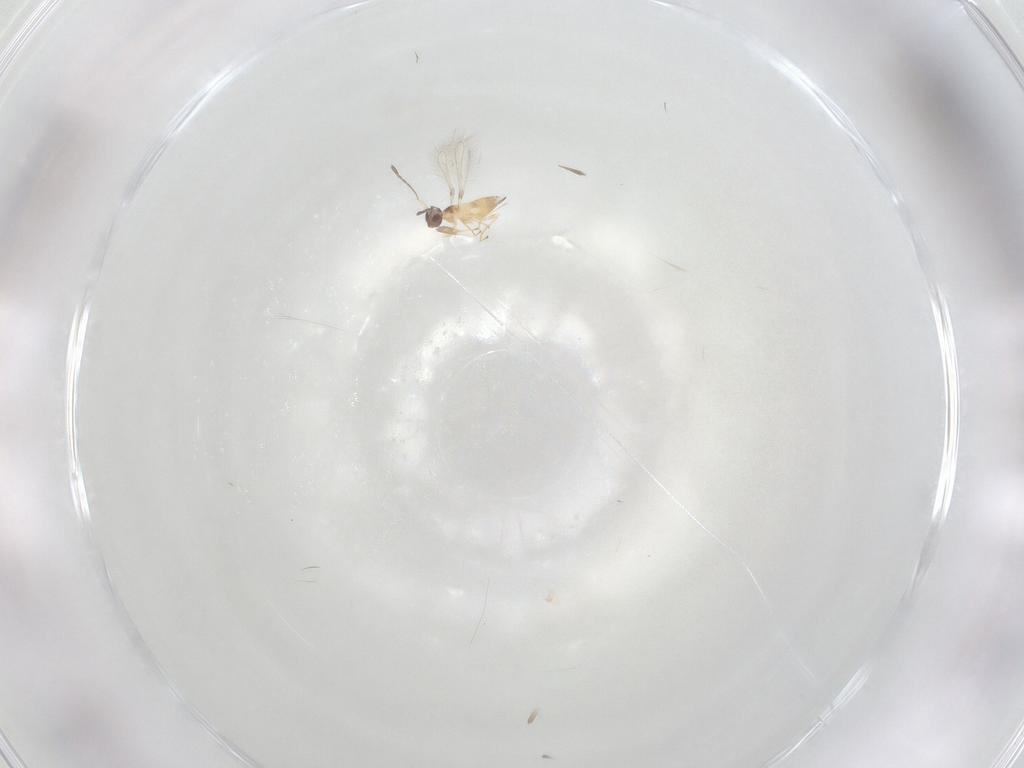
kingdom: Animalia
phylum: Arthropoda
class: Insecta
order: Hymenoptera
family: Mymaridae
